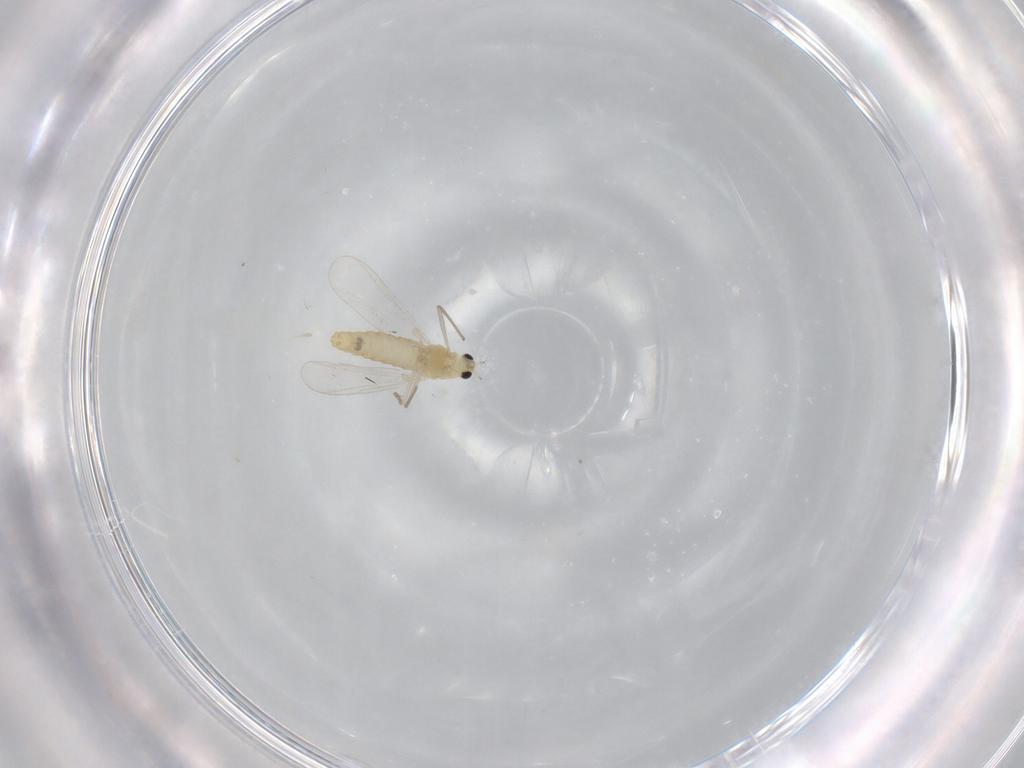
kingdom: Animalia
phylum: Arthropoda
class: Insecta
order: Diptera
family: Chironomidae
